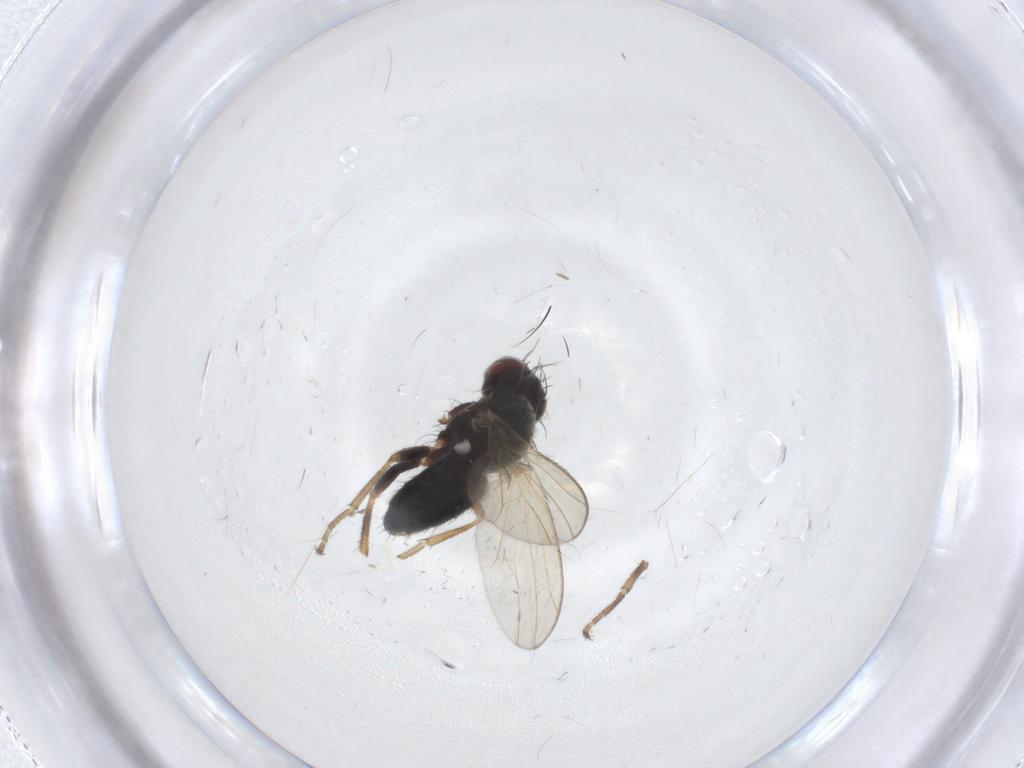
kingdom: Animalia
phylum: Arthropoda
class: Insecta
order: Diptera
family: Heleomyzidae
